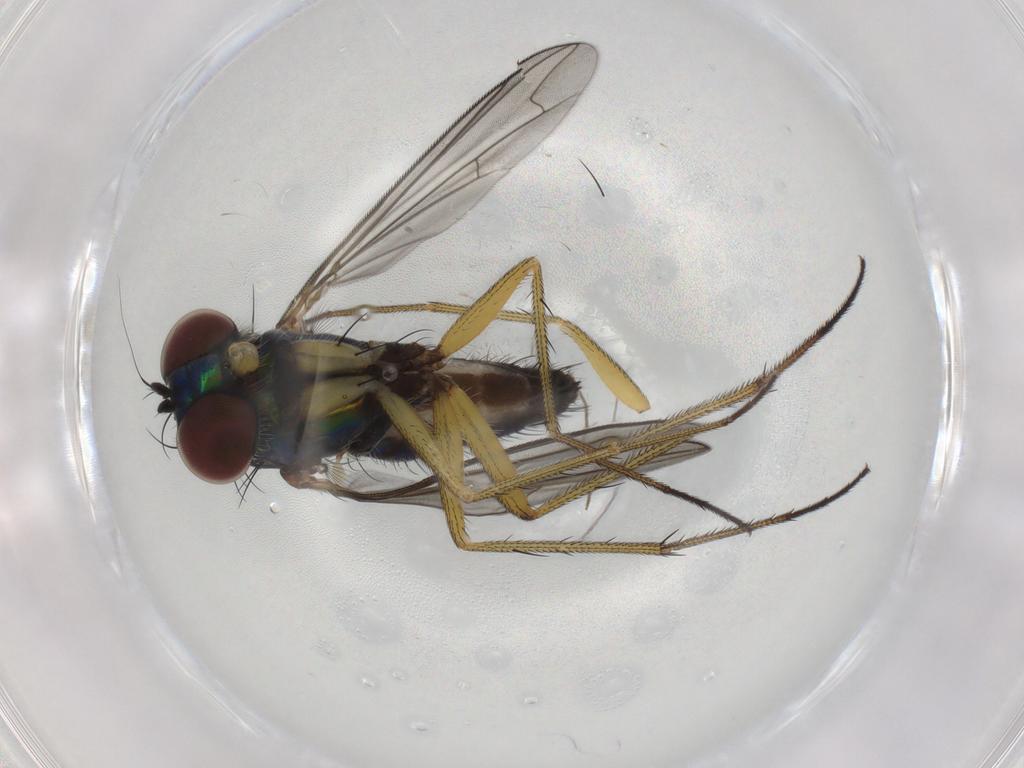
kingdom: Animalia
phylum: Arthropoda
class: Insecta
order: Diptera
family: Dolichopodidae
